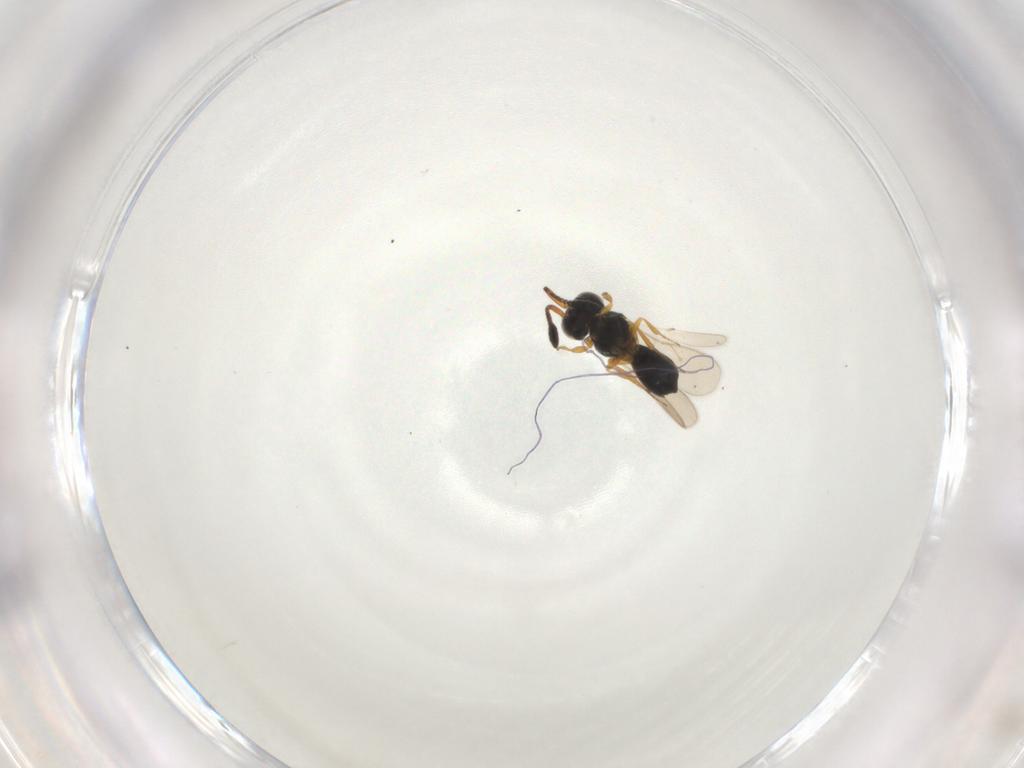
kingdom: Animalia
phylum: Arthropoda
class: Insecta
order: Hymenoptera
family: Scelionidae
